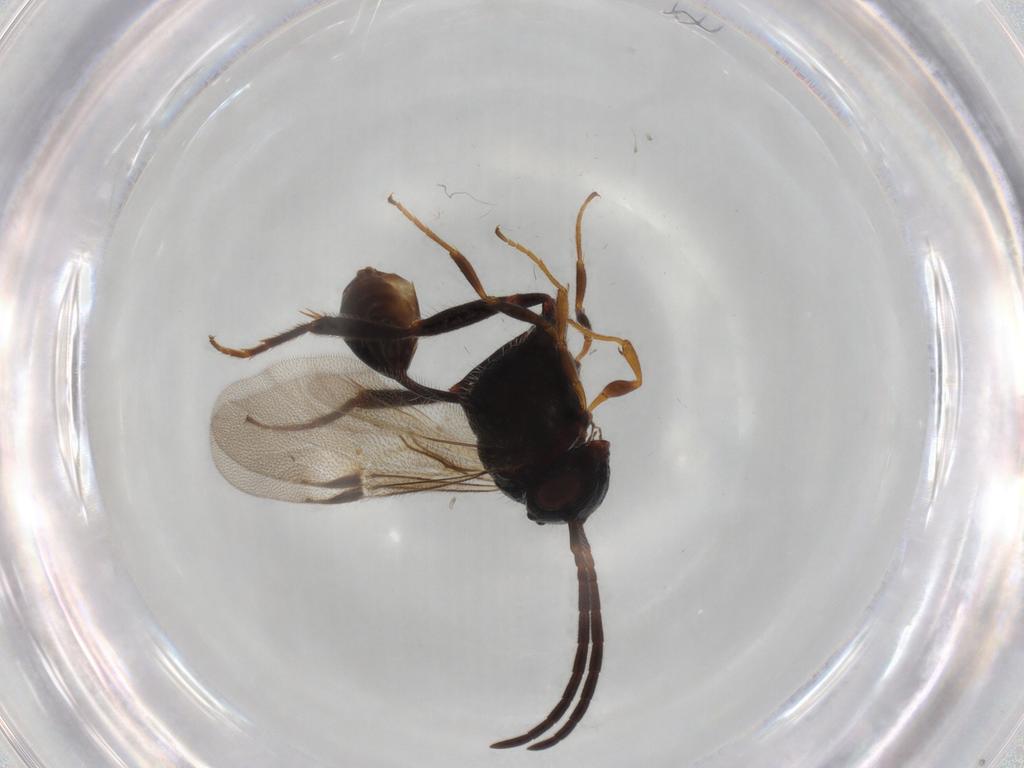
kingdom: Animalia
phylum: Arthropoda
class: Insecta
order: Hymenoptera
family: Evaniidae
